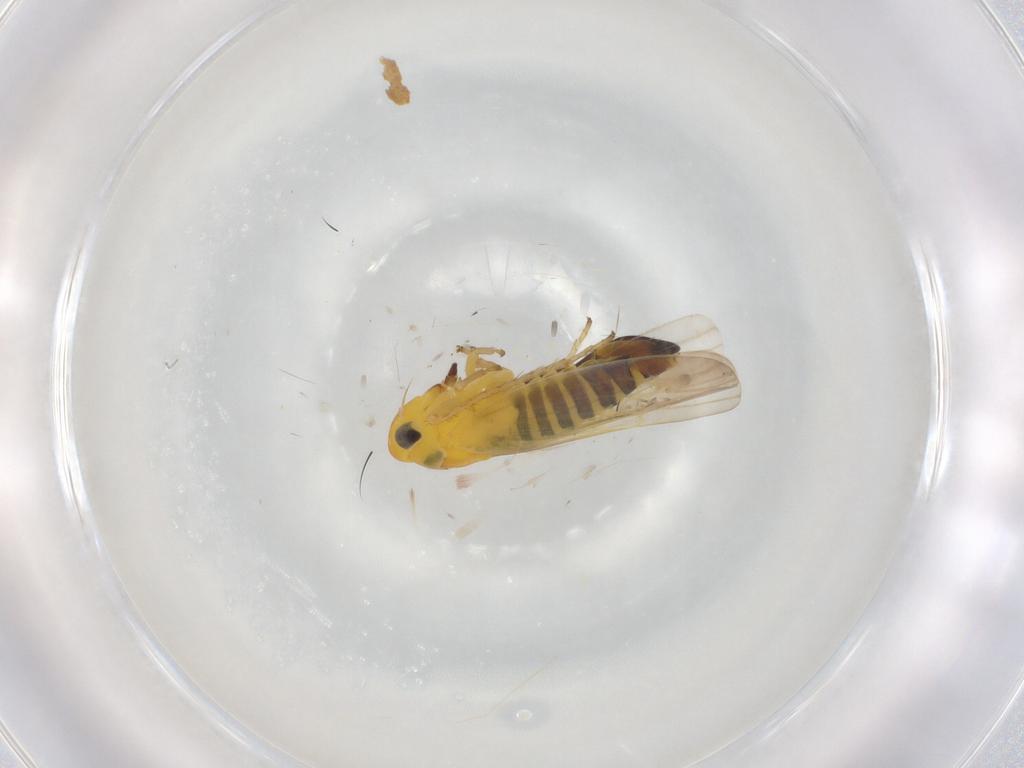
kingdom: Animalia
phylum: Arthropoda
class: Insecta
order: Hemiptera
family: Cicadellidae
